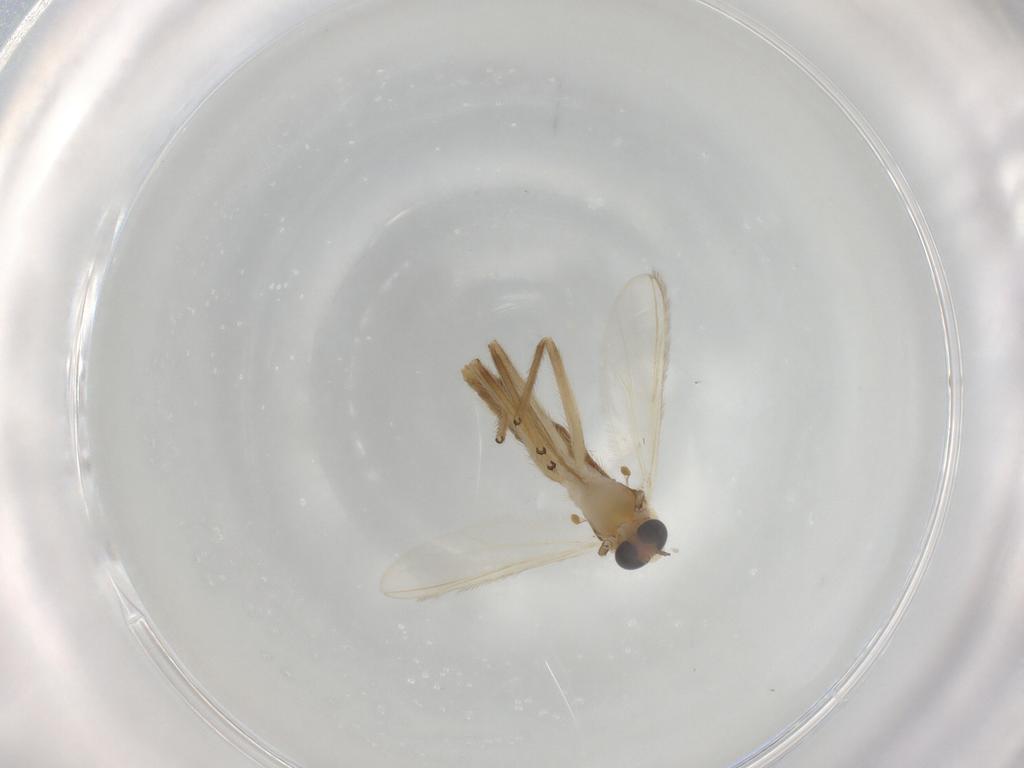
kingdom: Animalia
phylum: Arthropoda
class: Insecta
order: Diptera
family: Chironomidae
